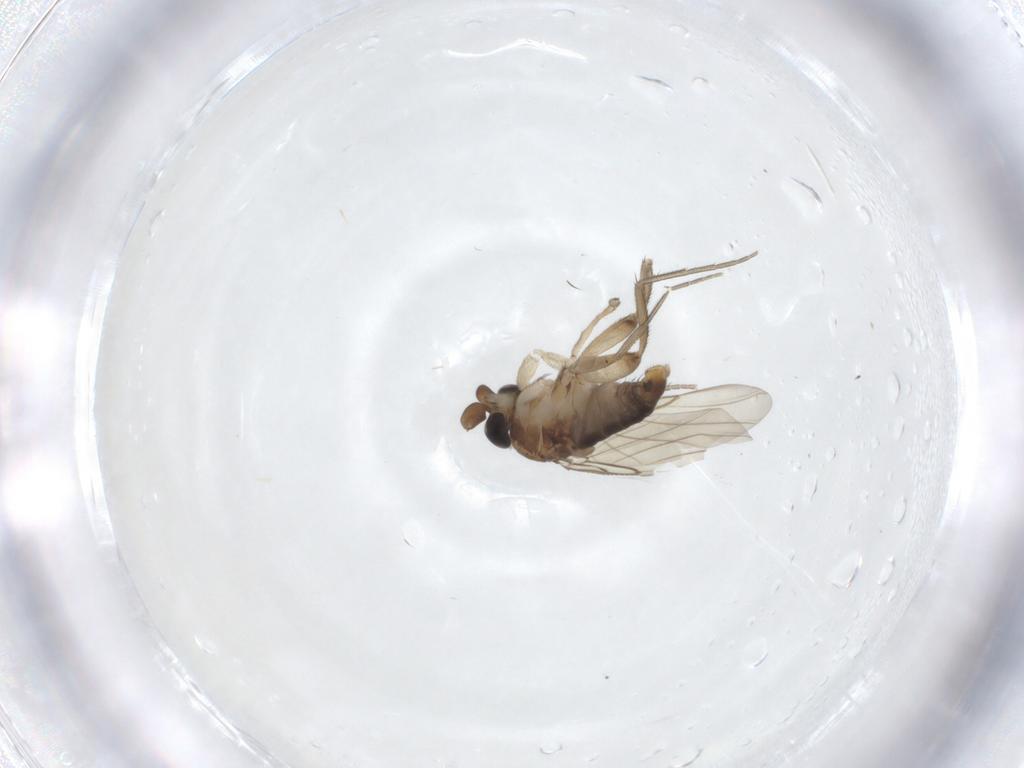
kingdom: Animalia
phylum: Arthropoda
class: Insecta
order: Diptera
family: Phoridae
